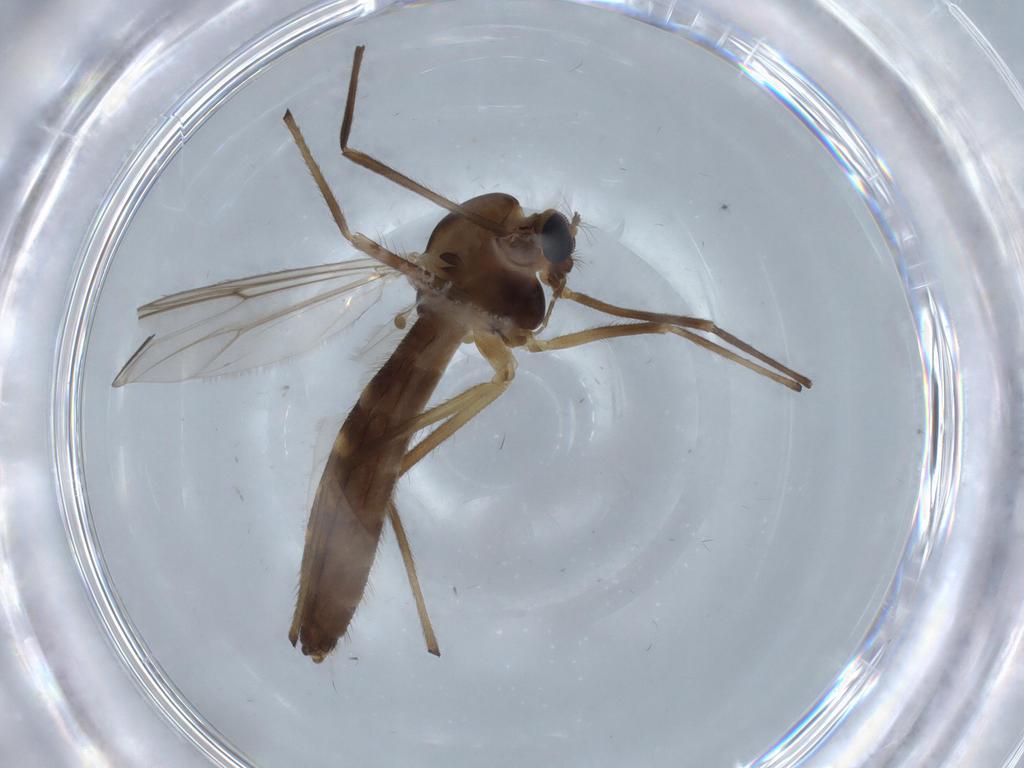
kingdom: Animalia
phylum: Arthropoda
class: Insecta
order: Diptera
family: Chironomidae
